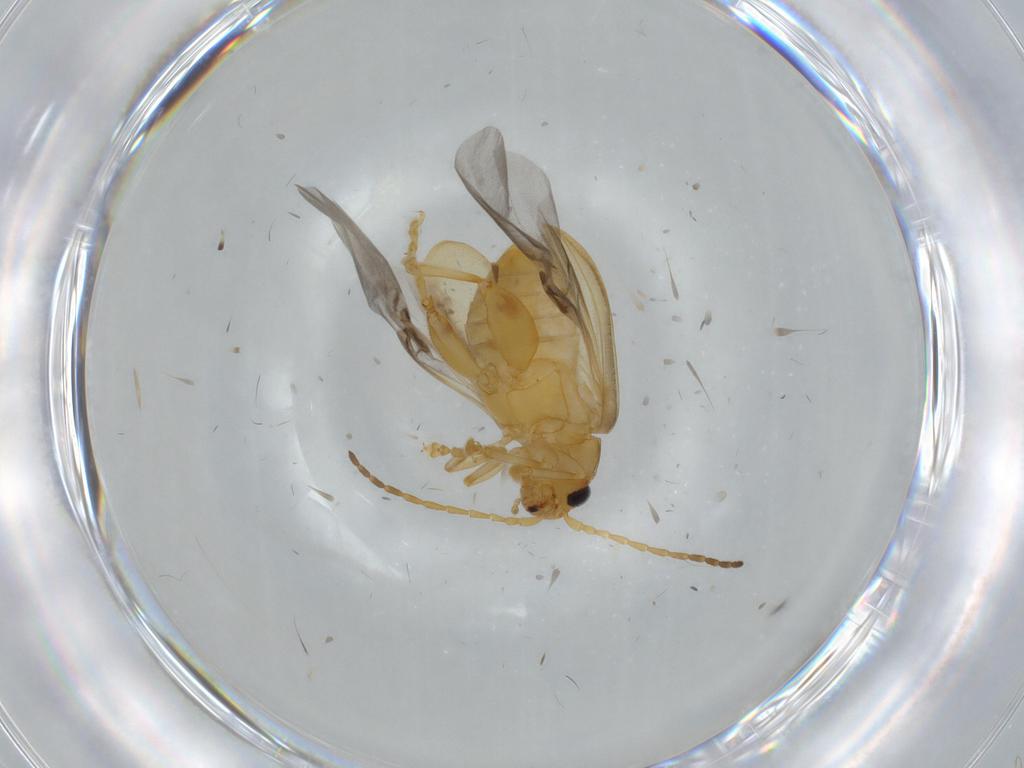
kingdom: Animalia
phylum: Arthropoda
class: Insecta
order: Coleoptera
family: Chrysomelidae
